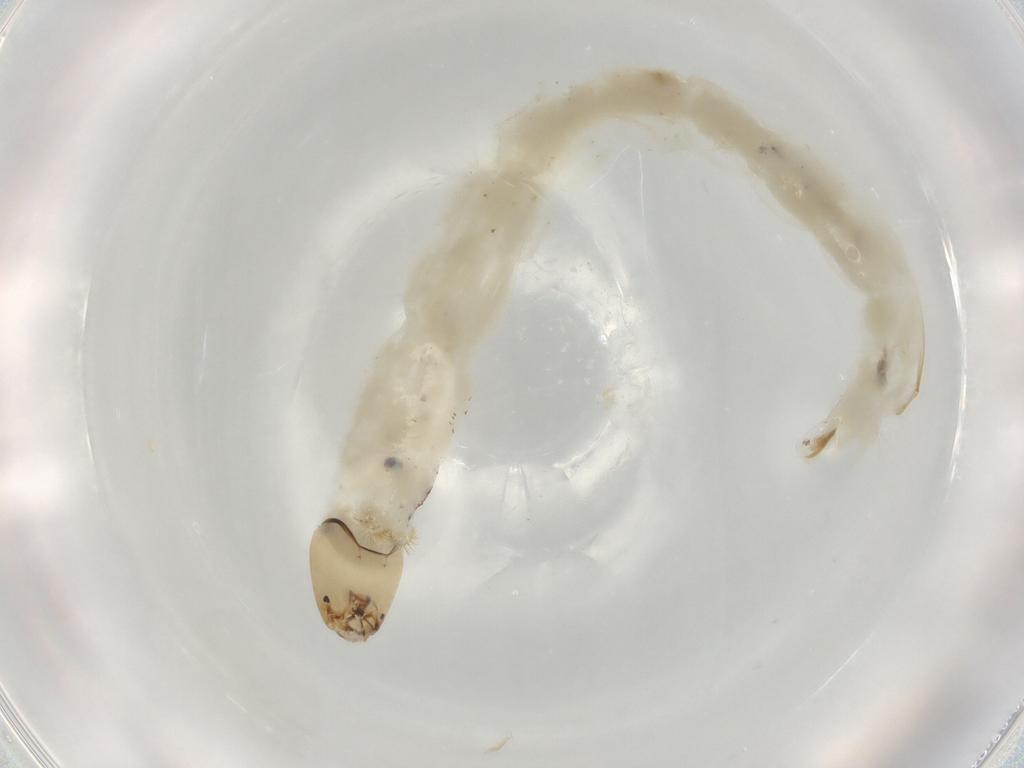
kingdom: Animalia
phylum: Arthropoda
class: Insecta
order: Diptera
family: Chironomidae
